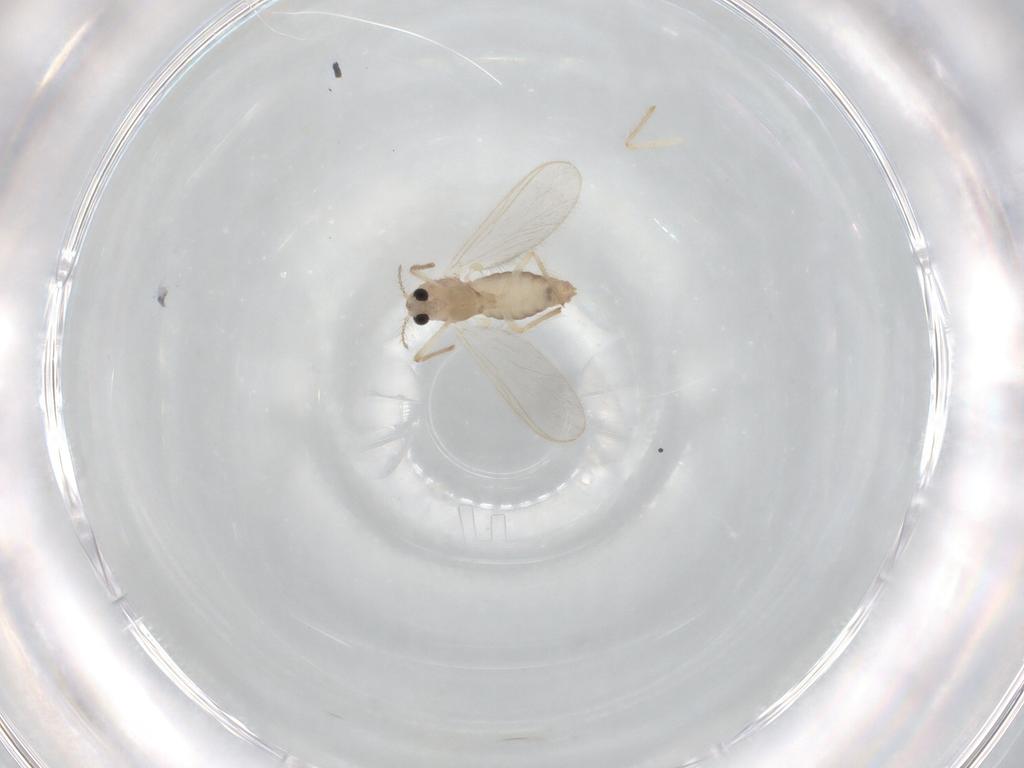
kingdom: Animalia
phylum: Arthropoda
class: Insecta
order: Diptera
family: Chironomidae
